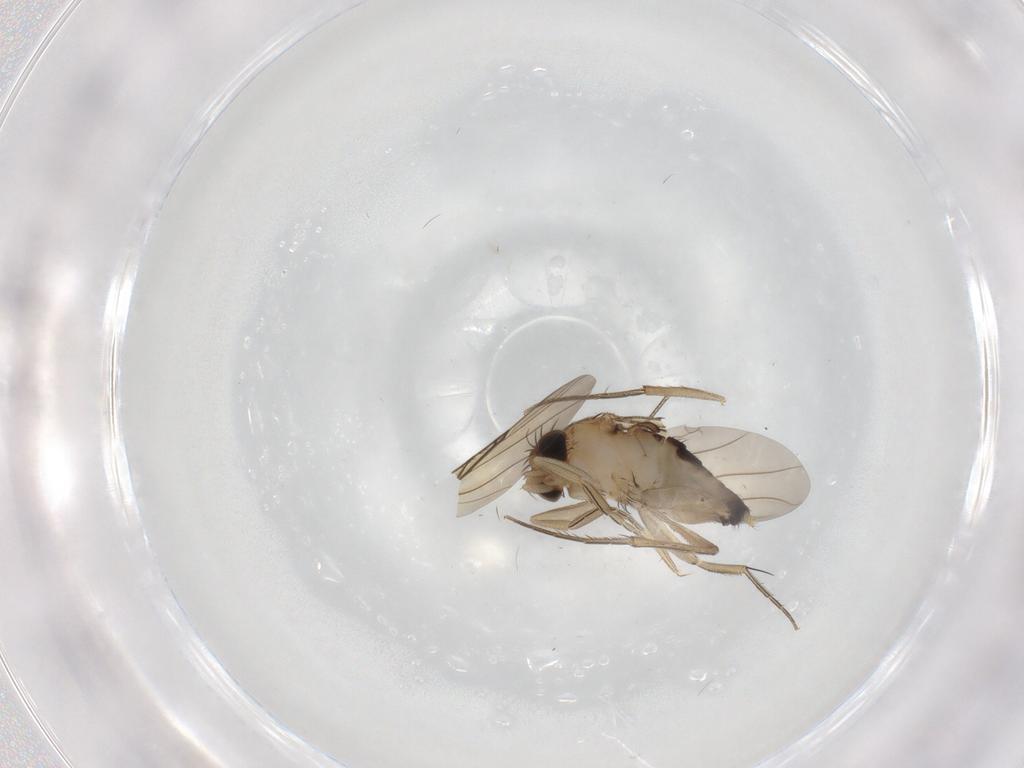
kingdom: Animalia
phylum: Arthropoda
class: Insecta
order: Diptera
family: Phoridae
